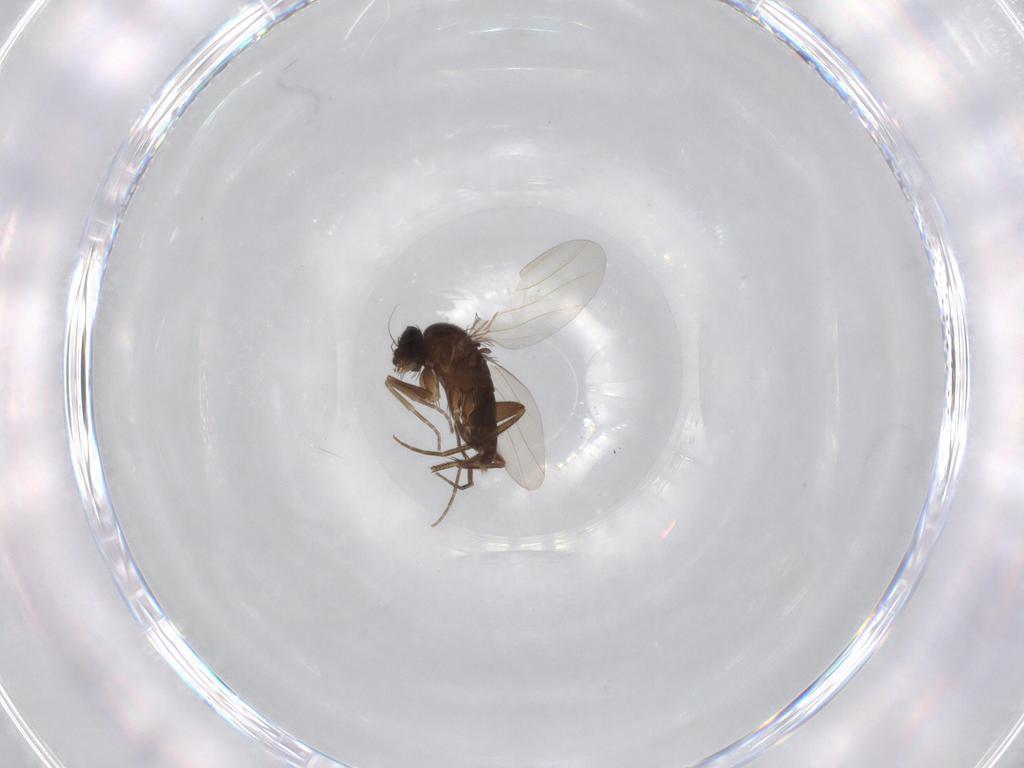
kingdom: Animalia
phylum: Arthropoda
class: Insecta
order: Diptera
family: Phoridae
